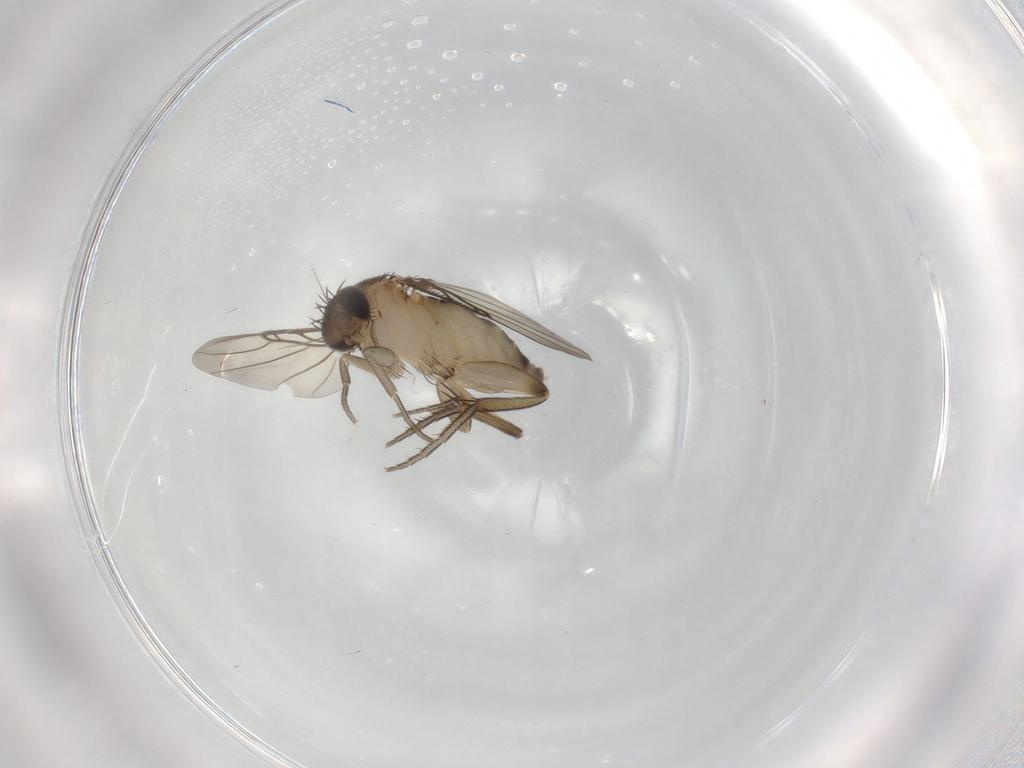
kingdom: Animalia
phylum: Arthropoda
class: Insecta
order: Diptera
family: Phoridae
